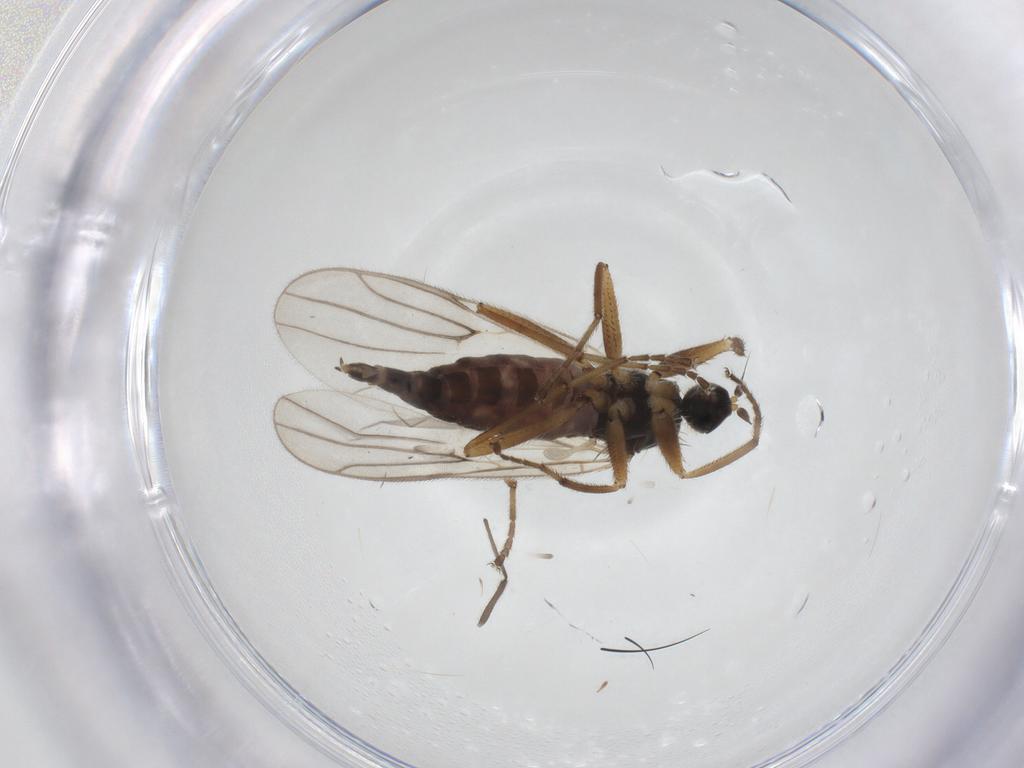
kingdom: Animalia
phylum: Arthropoda
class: Insecta
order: Diptera
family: Hybotidae
